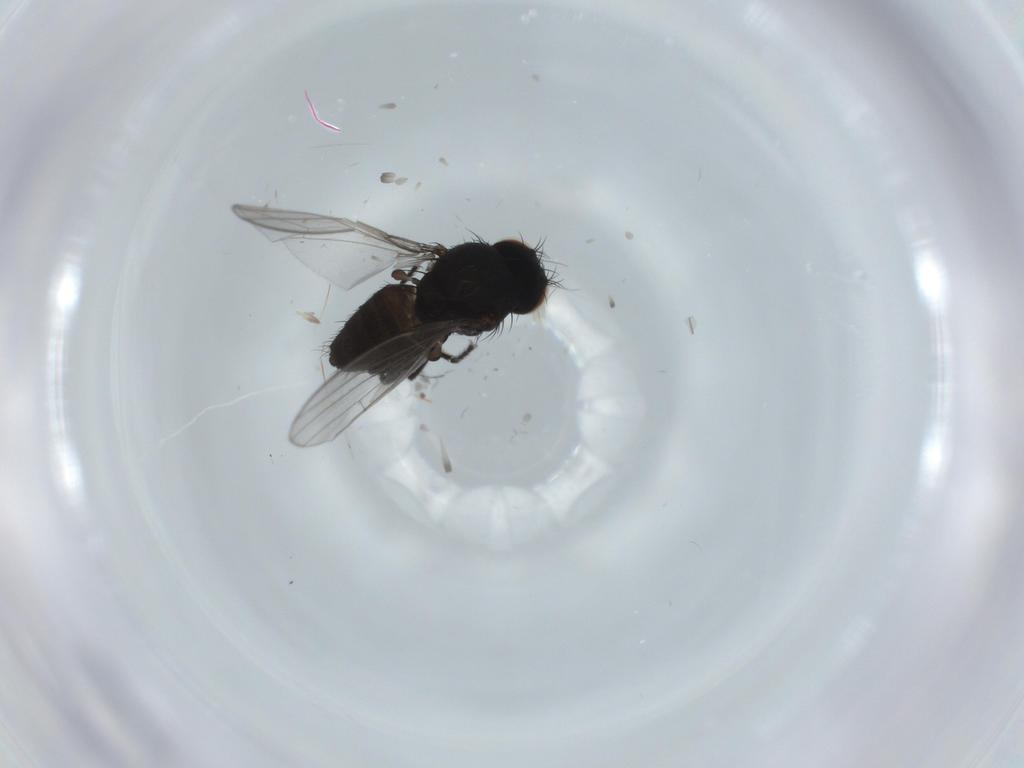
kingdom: Animalia
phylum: Arthropoda
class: Insecta
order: Diptera
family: Milichiidae
